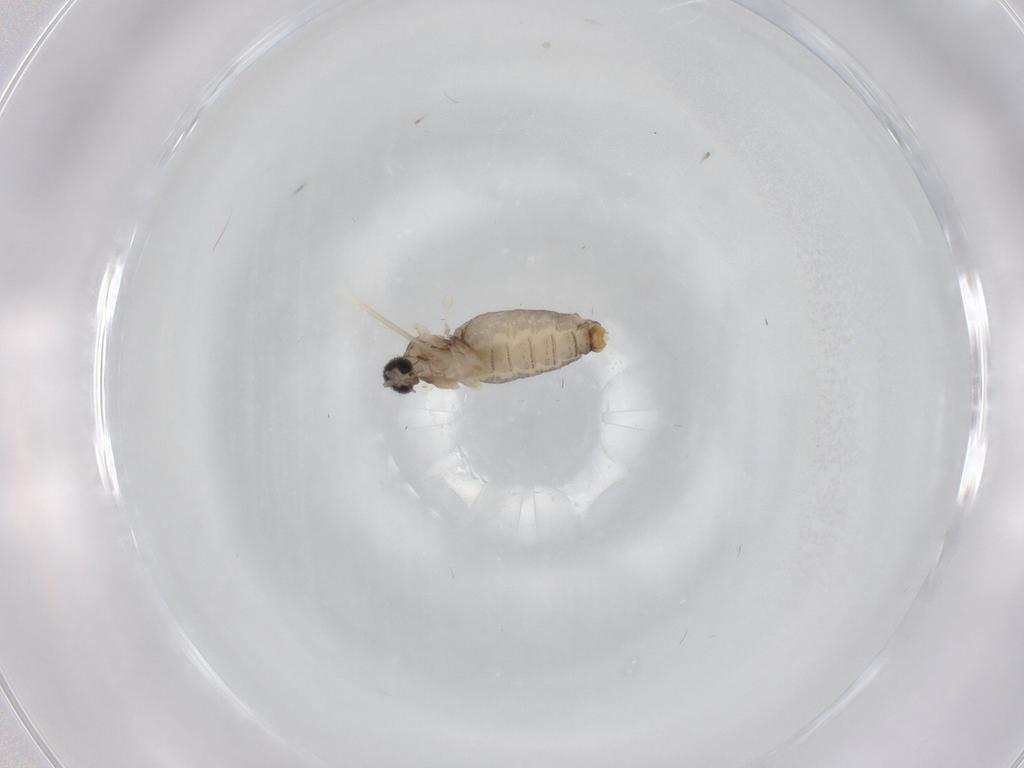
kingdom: Animalia
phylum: Arthropoda
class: Insecta
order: Diptera
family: Cecidomyiidae
